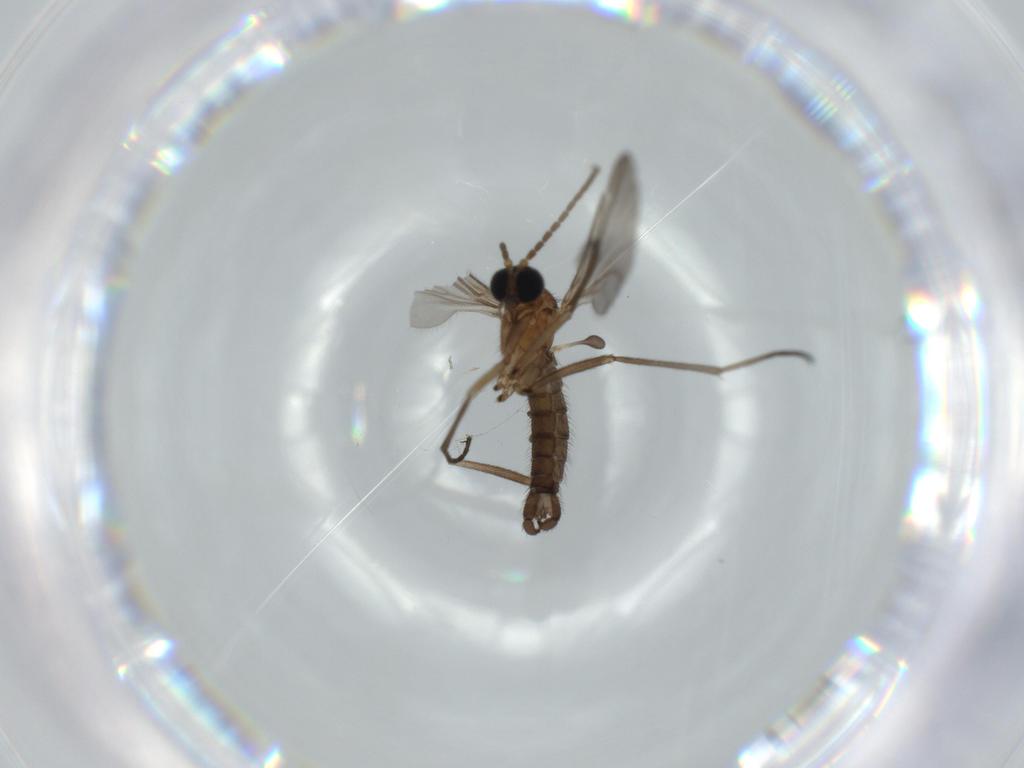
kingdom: Animalia
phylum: Arthropoda
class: Insecta
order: Diptera
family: Sciaridae
